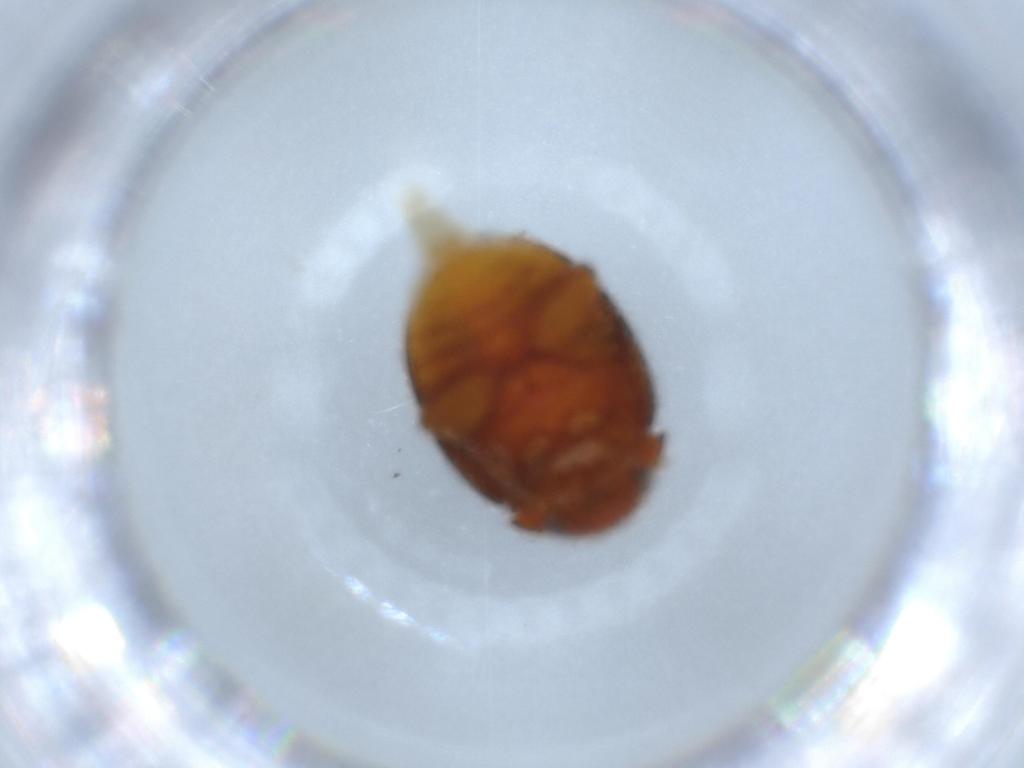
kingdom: Animalia
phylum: Arthropoda
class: Insecta
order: Coleoptera
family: Scirtidae
